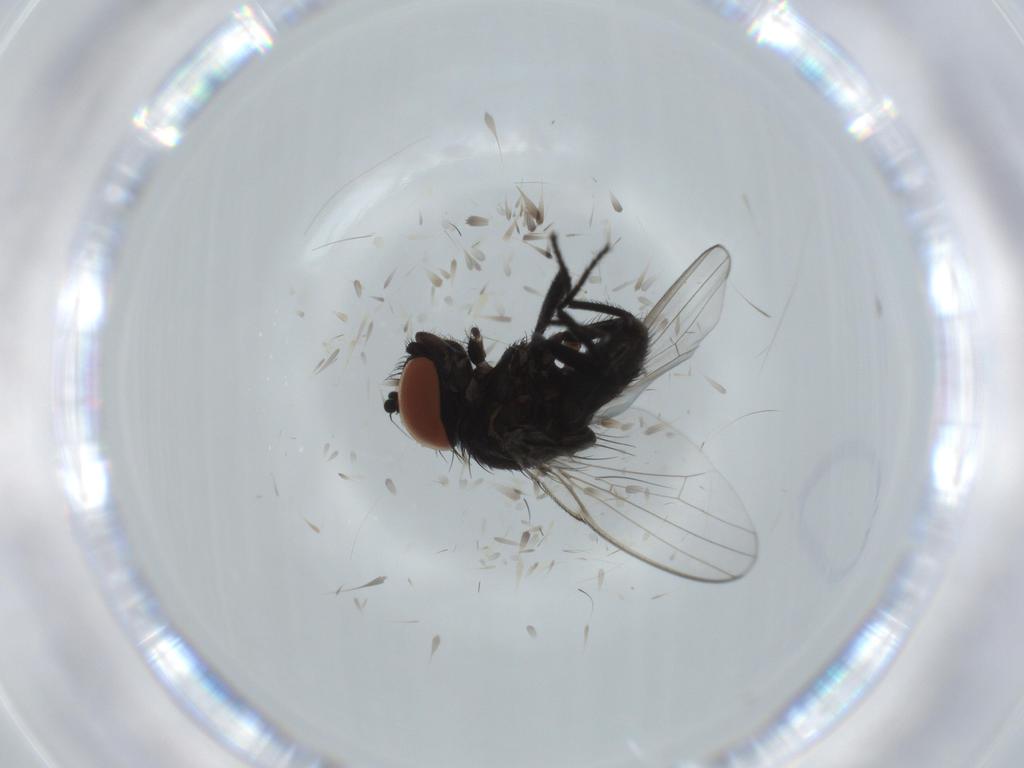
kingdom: Animalia
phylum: Arthropoda
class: Insecta
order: Diptera
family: Milichiidae
